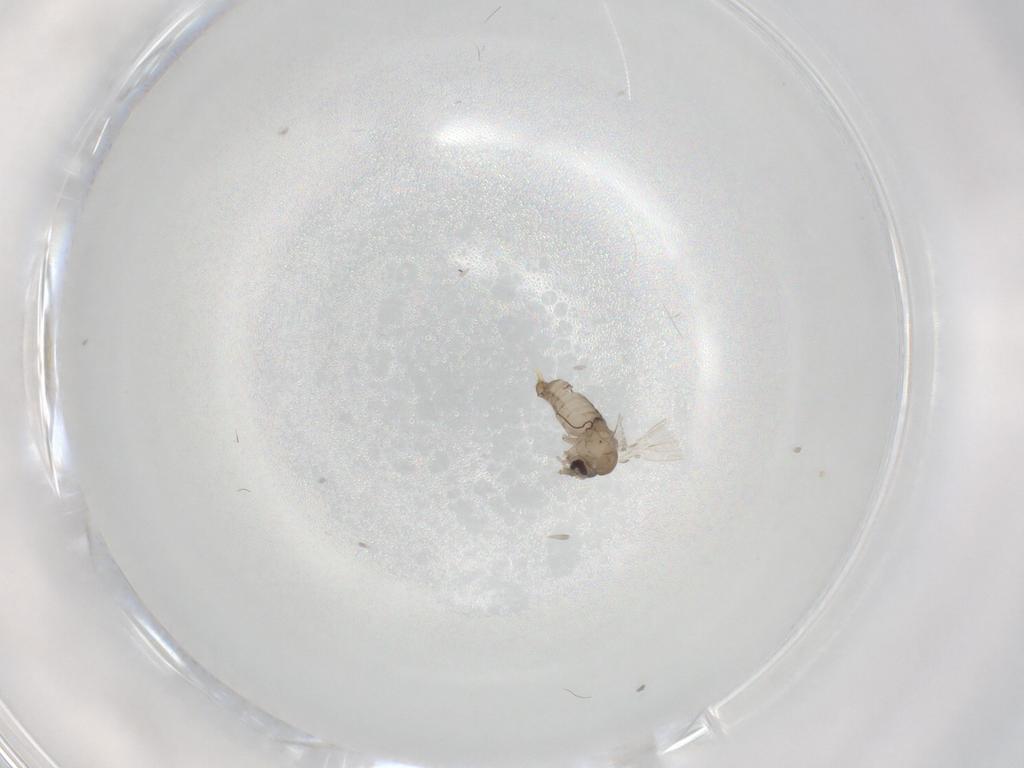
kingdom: Animalia
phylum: Arthropoda
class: Insecta
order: Diptera
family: Psychodidae
